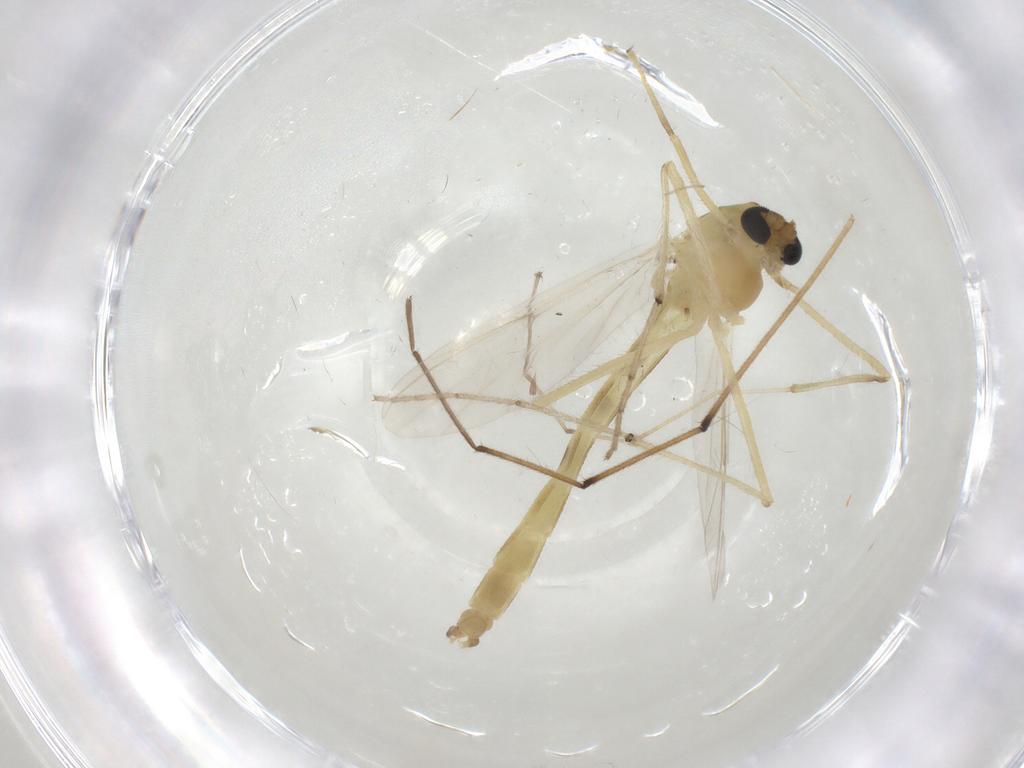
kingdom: Animalia
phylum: Arthropoda
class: Insecta
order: Diptera
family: Chironomidae
